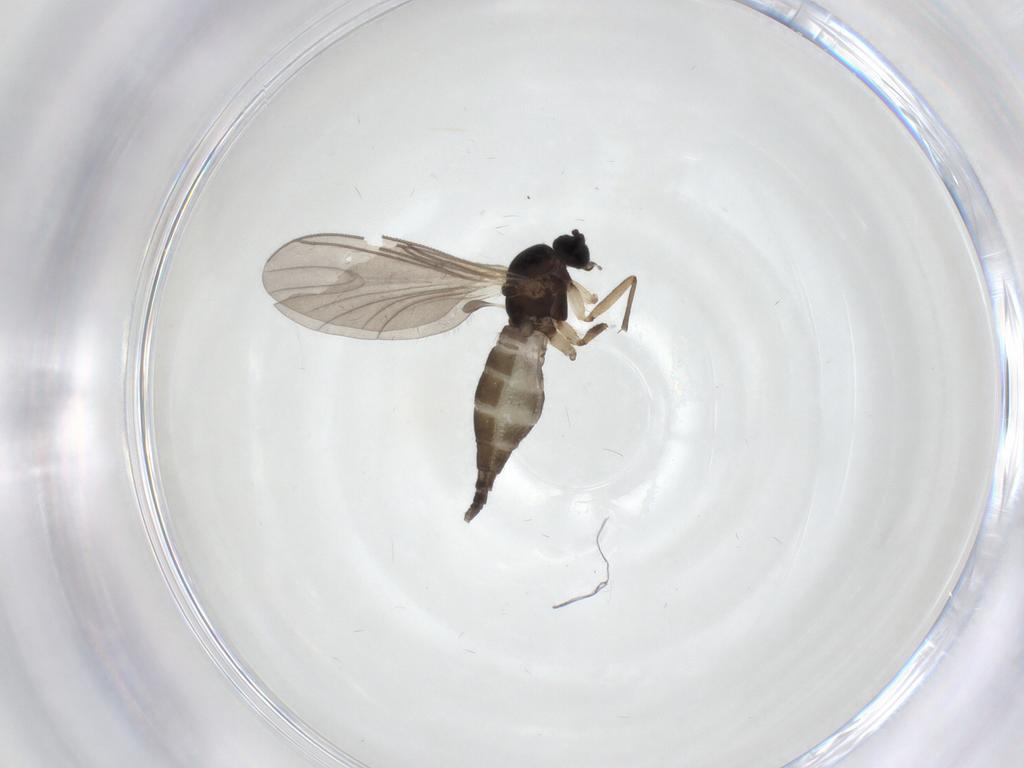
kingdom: Animalia
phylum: Arthropoda
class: Insecta
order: Diptera
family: Sciaridae
